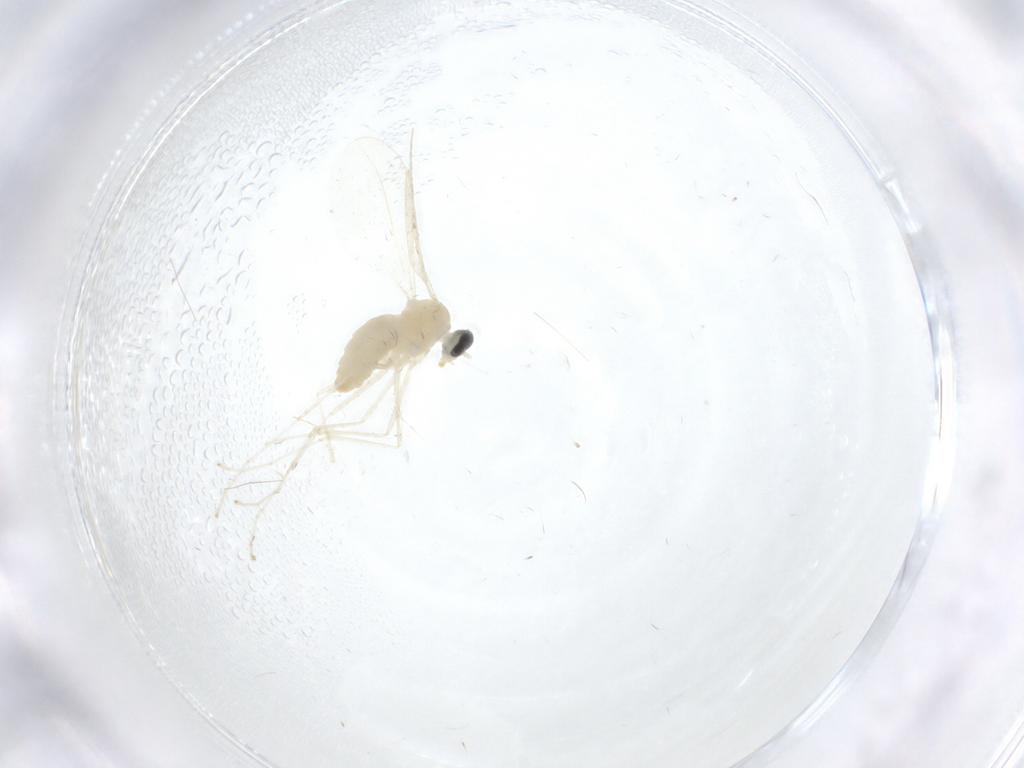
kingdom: Animalia
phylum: Arthropoda
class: Insecta
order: Diptera
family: Cecidomyiidae
